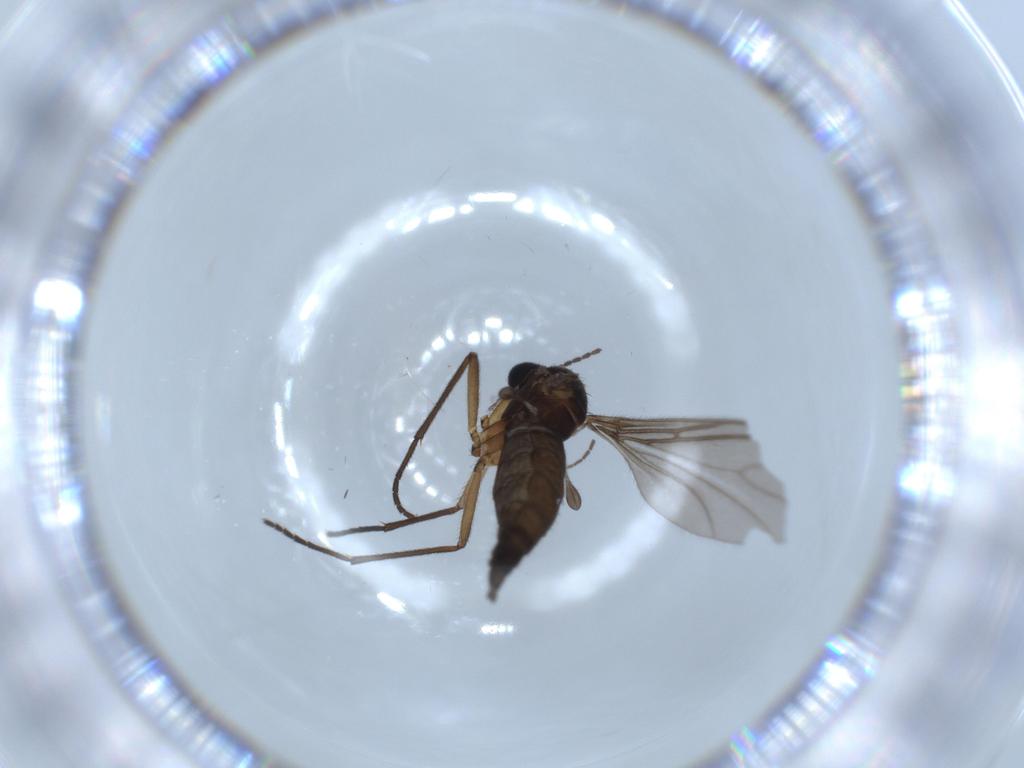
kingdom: Animalia
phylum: Arthropoda
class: Insecta
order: Diptera
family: Sciaridae
